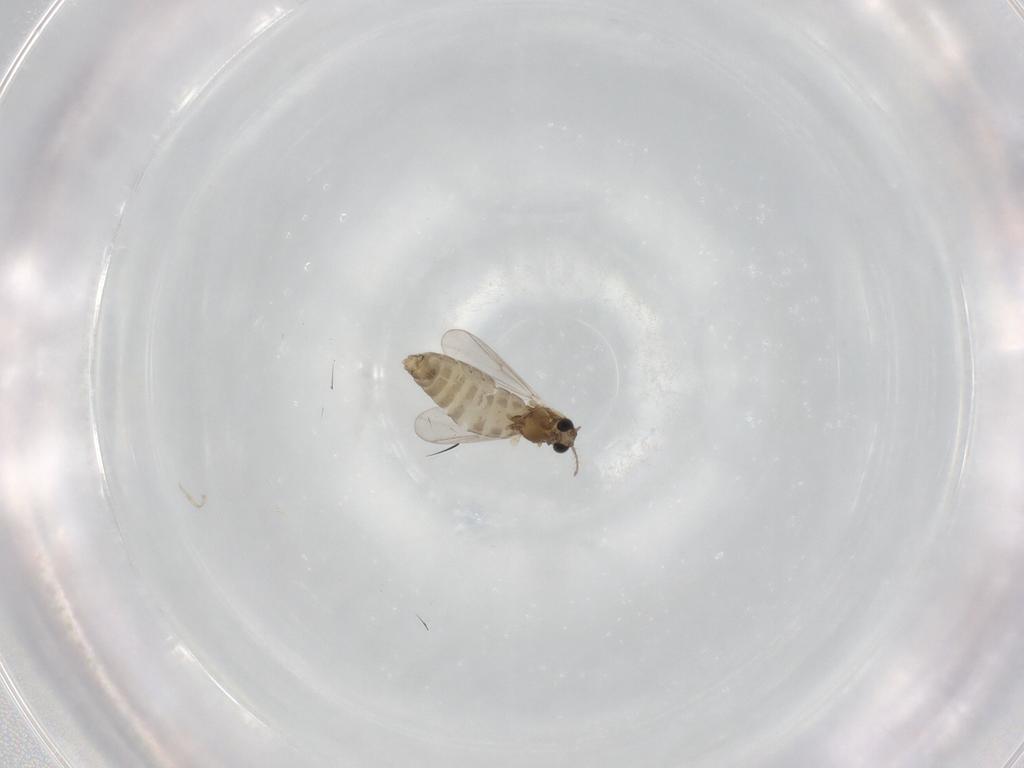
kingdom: Animalia
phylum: Arthropoda
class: Insecta
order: Diptera
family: Chironomidae
